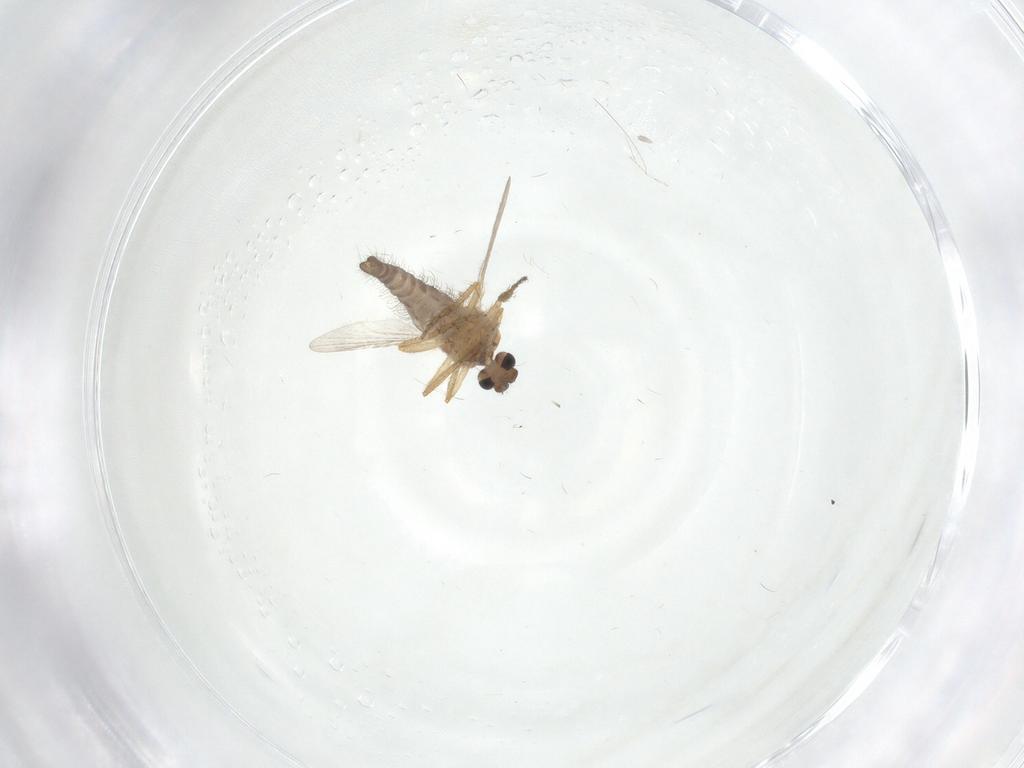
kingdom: Animalia
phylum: Arthropoda
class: Insecta
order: Diptera
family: Ceratopogonidae
